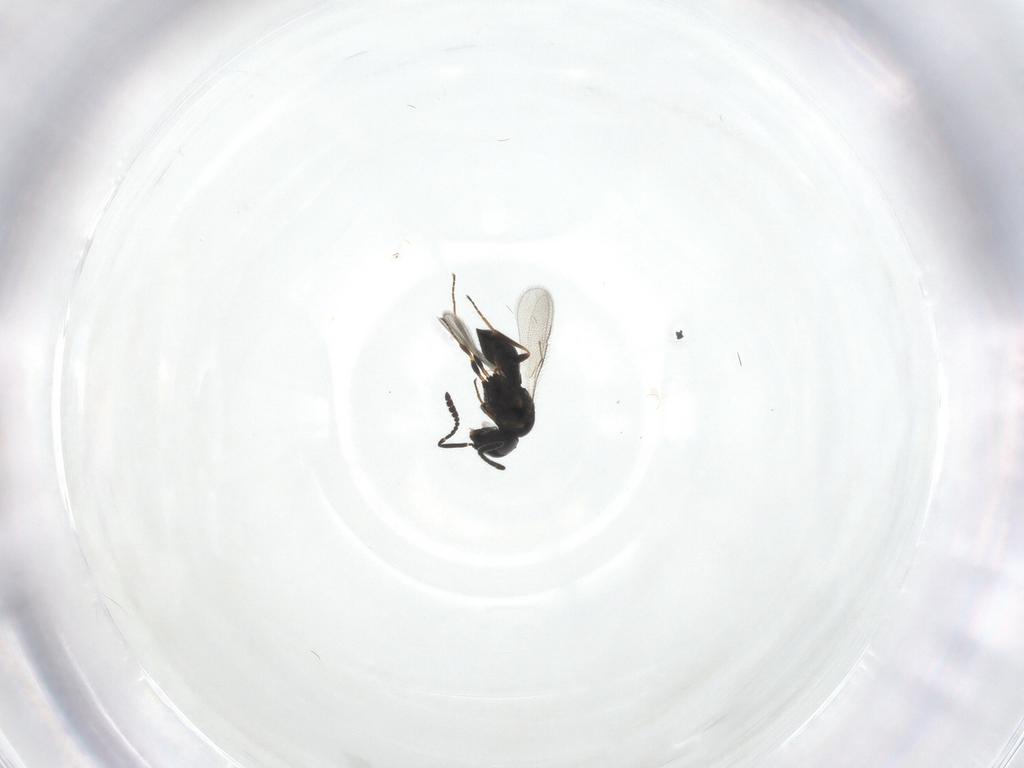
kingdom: Animalia
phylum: Arthropoda
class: Insecta
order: Hymenoptera
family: Scelionidae
